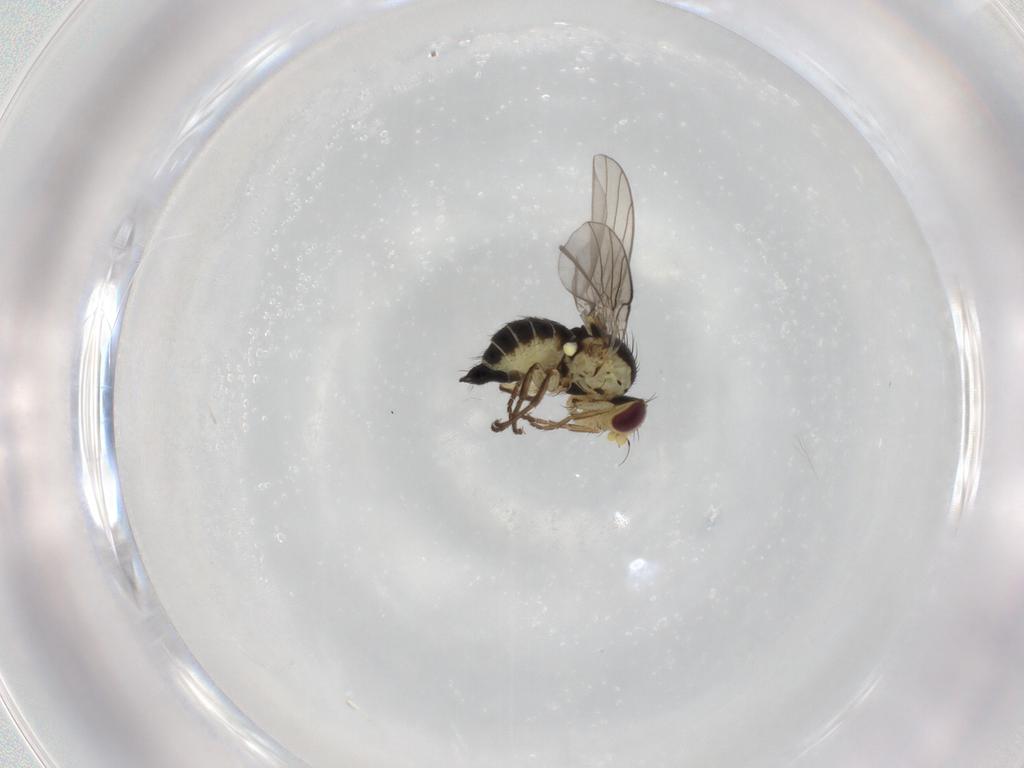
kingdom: Animalia
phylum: Arthropoda
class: Insecta
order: Diptera
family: Agromyzidae
